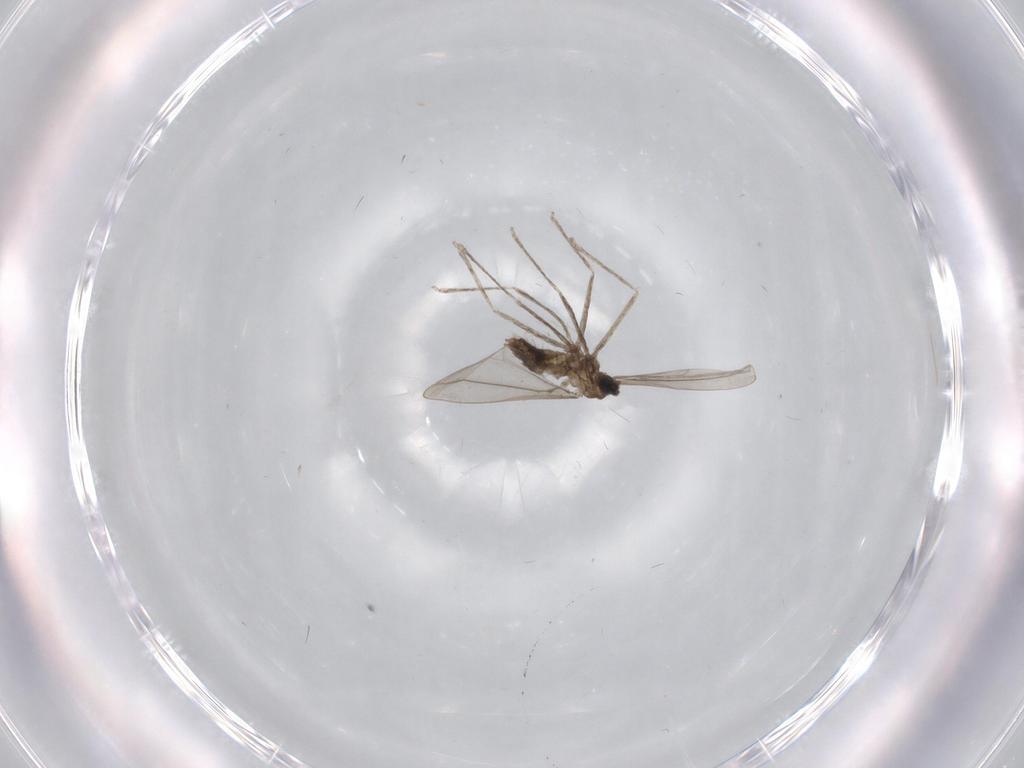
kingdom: Animalia
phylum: Arthropoda
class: Insecta
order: Diptera
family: Cecidomyiidae
